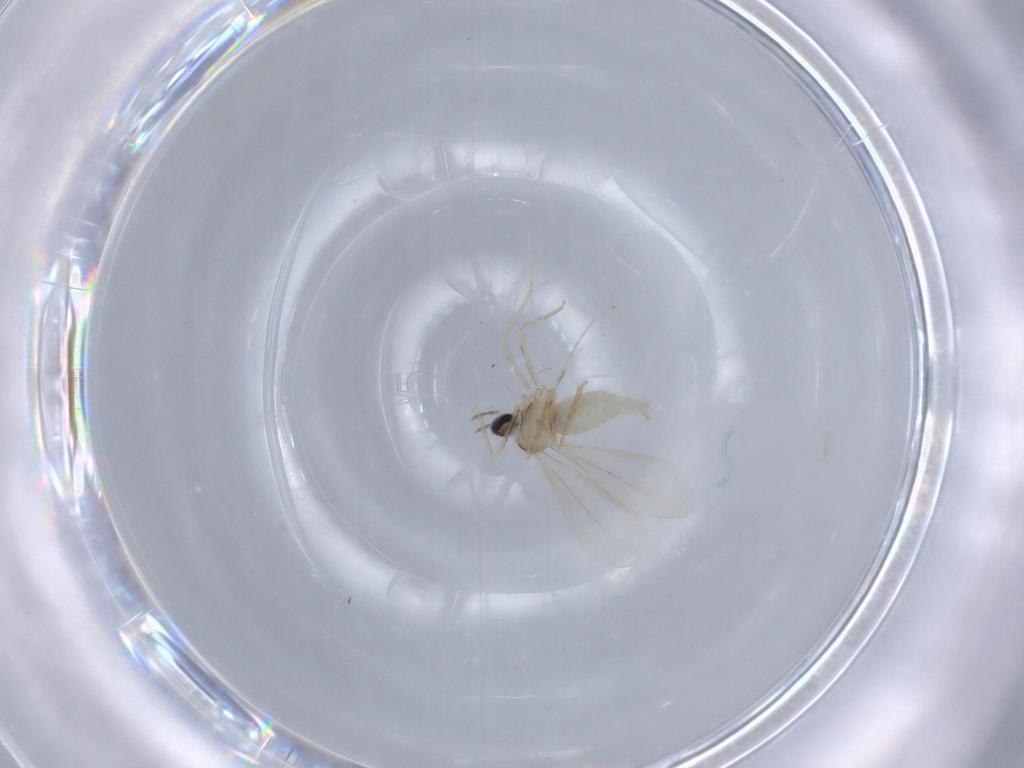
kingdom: Animalia
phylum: Arthropoda
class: Insecta
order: Diptera
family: Cecidomyiidae
